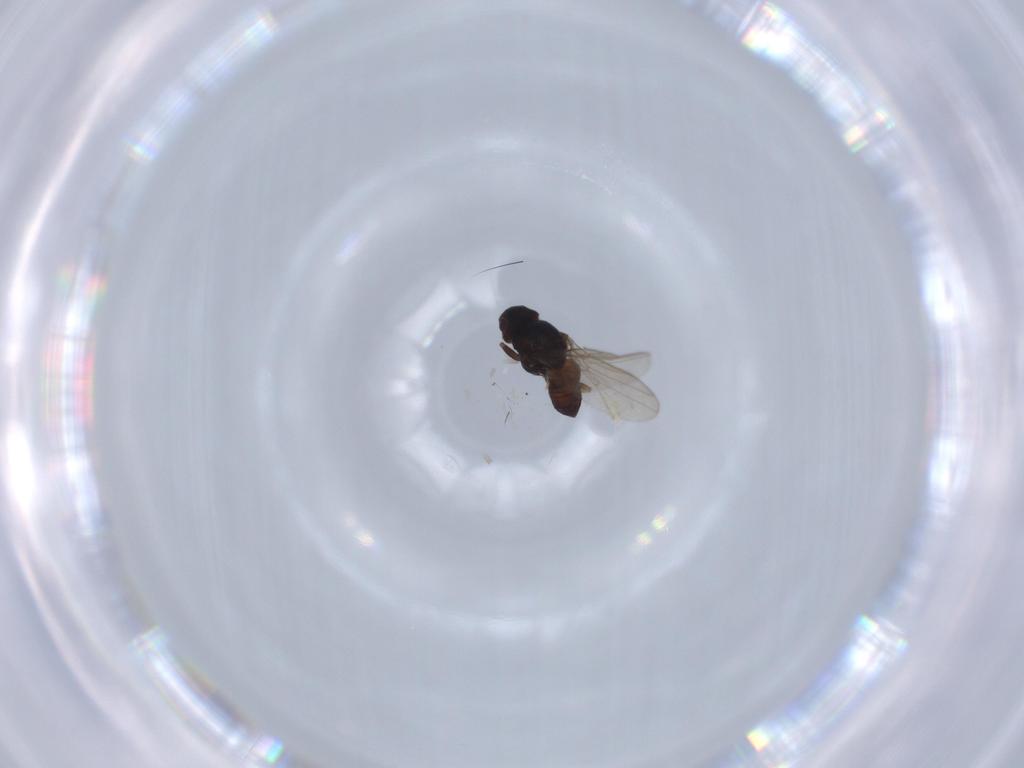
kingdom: Animalia
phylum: Arthropoda
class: Insecta
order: Diptera
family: Chloropidae
